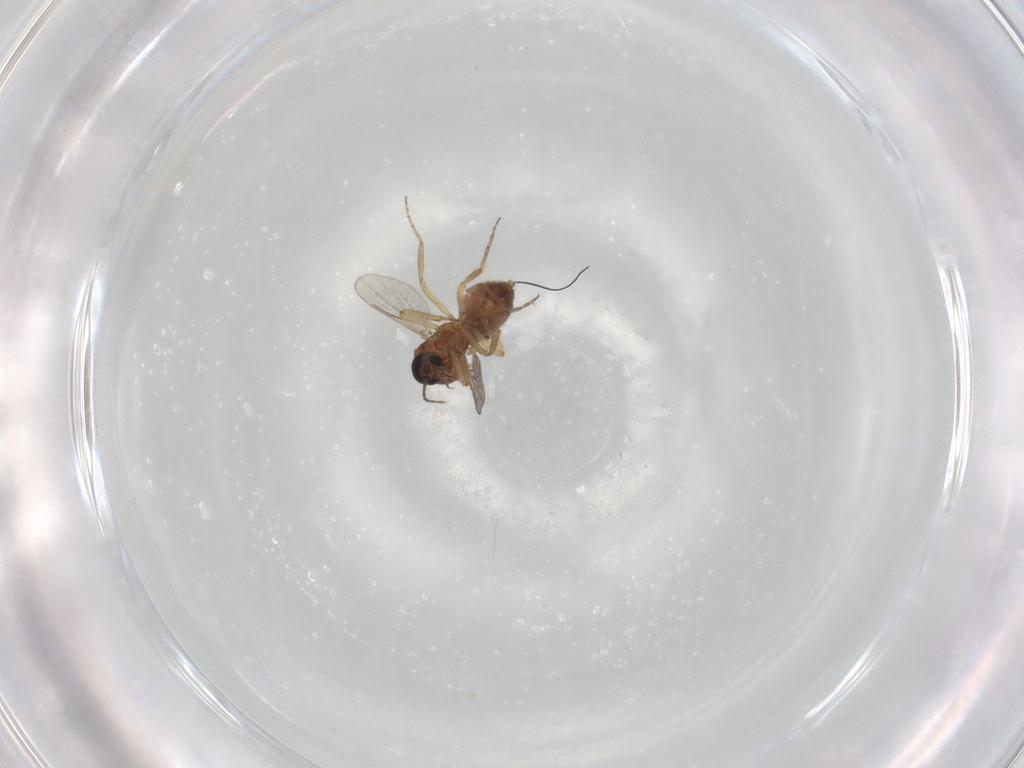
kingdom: Animalia
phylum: Arthropoda
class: Insecta
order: Diptera
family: Ceratopogonidae
